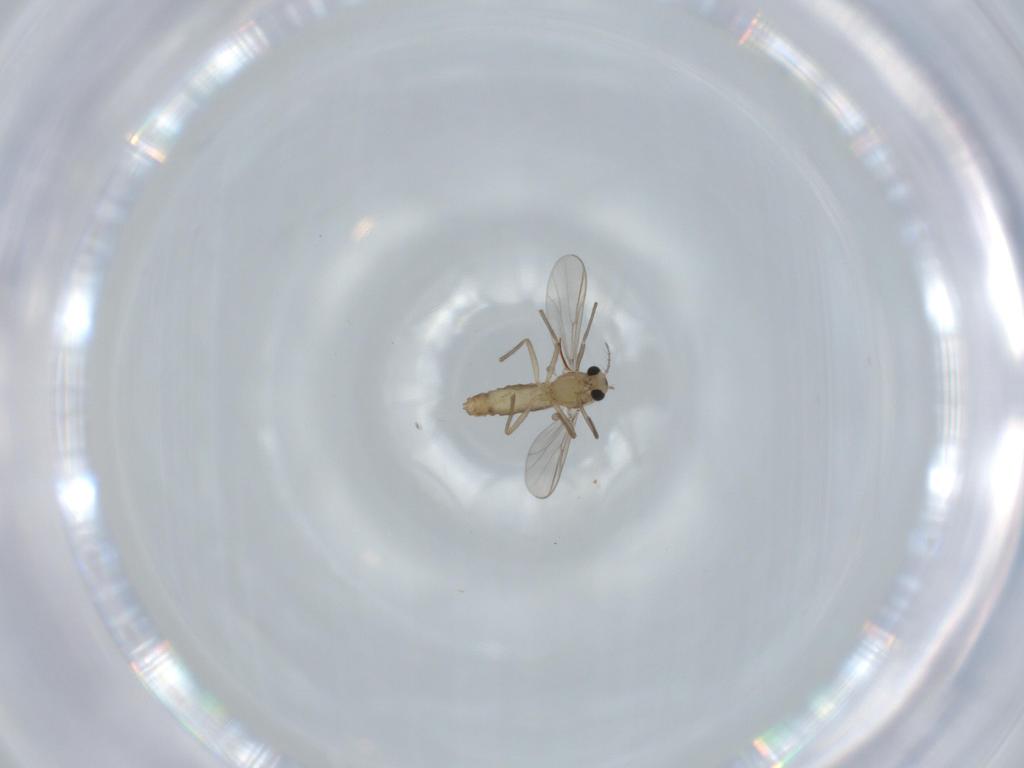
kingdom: Animalia
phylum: Arthropoda
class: Insecta
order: Diptera
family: Chironomidae
